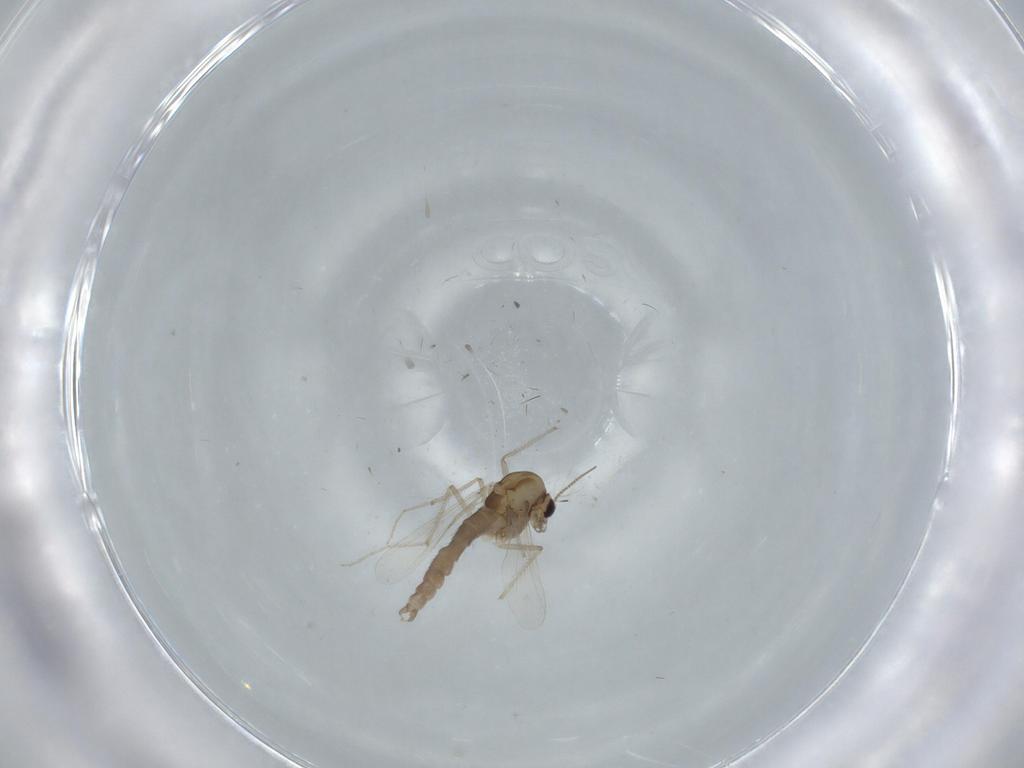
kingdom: Animalia
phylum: Arthropoda
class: Insecta
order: Diptera
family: Chironomidae
